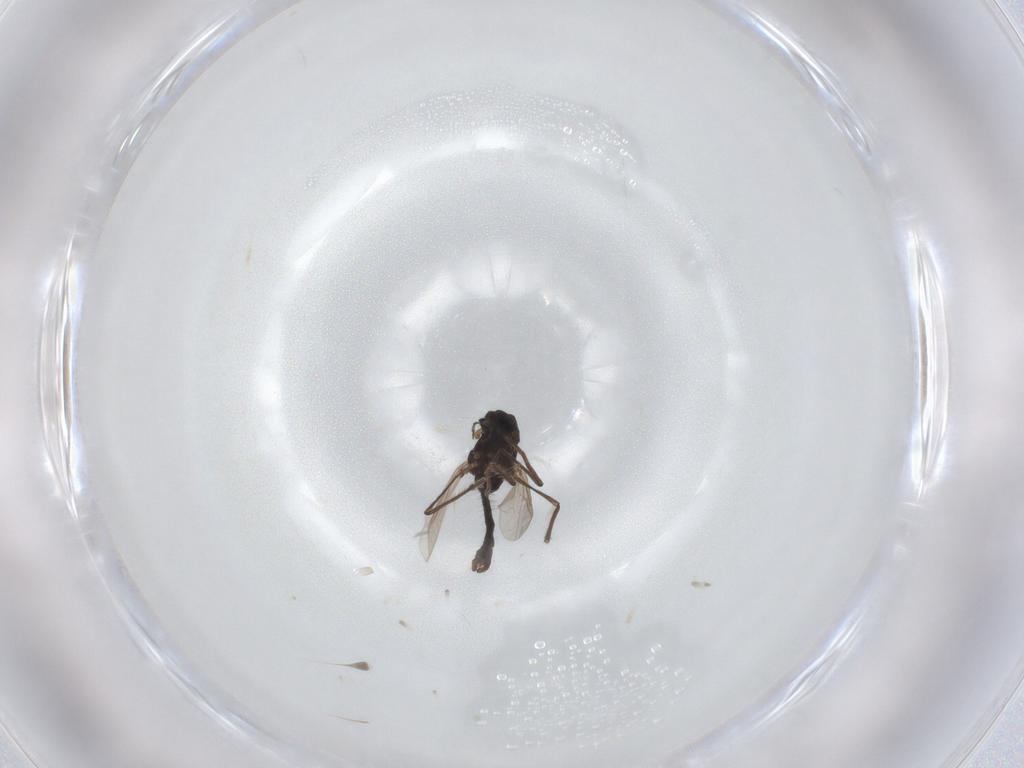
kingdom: Animalia
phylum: Arthropoda
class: Insecta
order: Diptera
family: Chironomidae
